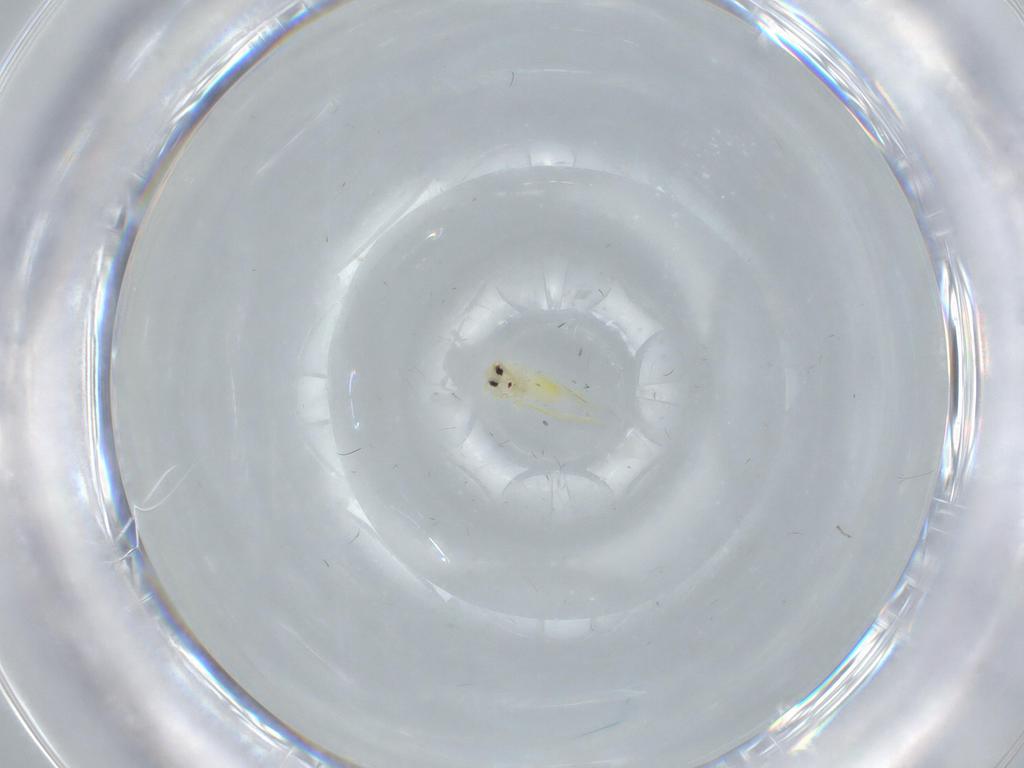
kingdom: Animalia
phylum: Arthropoda
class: Insecta
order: Hemiptera
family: Aleyrodidae
